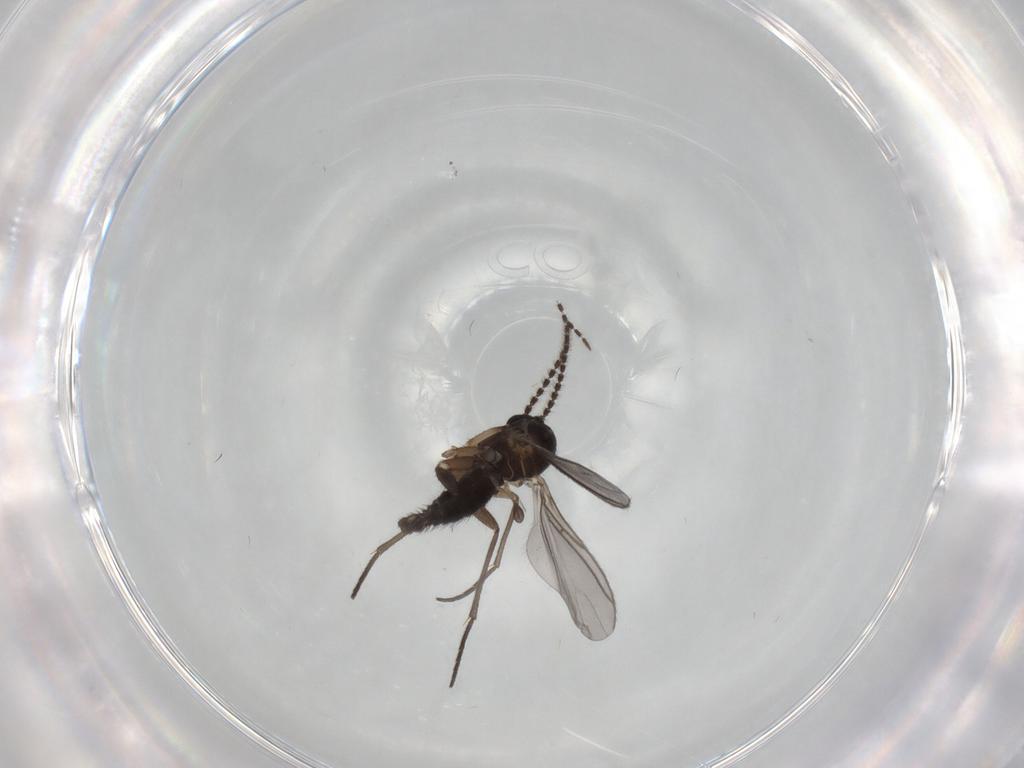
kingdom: Animalia
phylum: Arthropoda
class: Insecta
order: Diptera
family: Sciaridae
